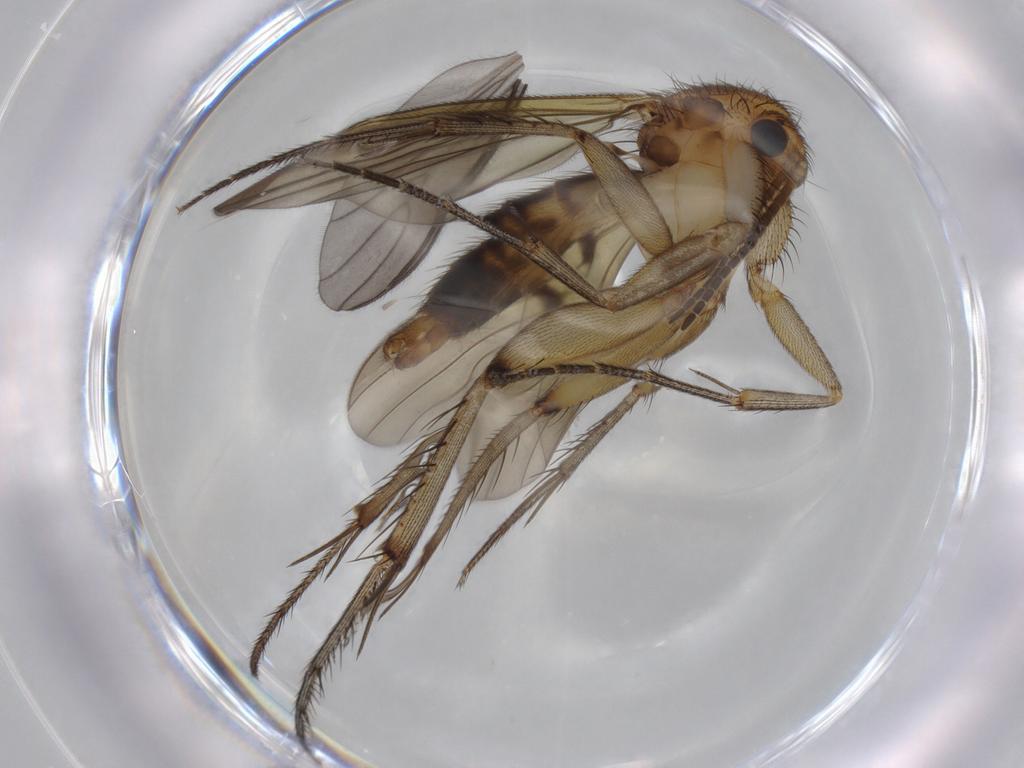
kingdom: Animalia
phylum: Arthropoda
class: Insecta
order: Diptera
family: Mycetophilidae
